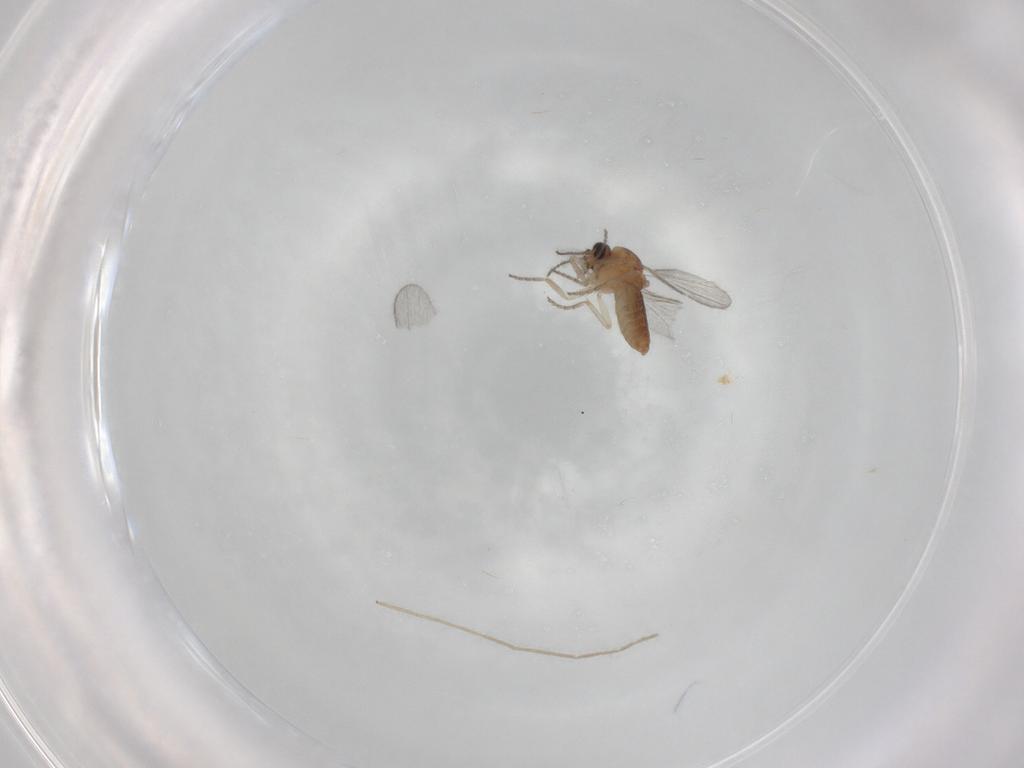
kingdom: Animalia
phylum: Arthropoda
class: Insecta
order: Diptera
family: Ceratopogonidae
